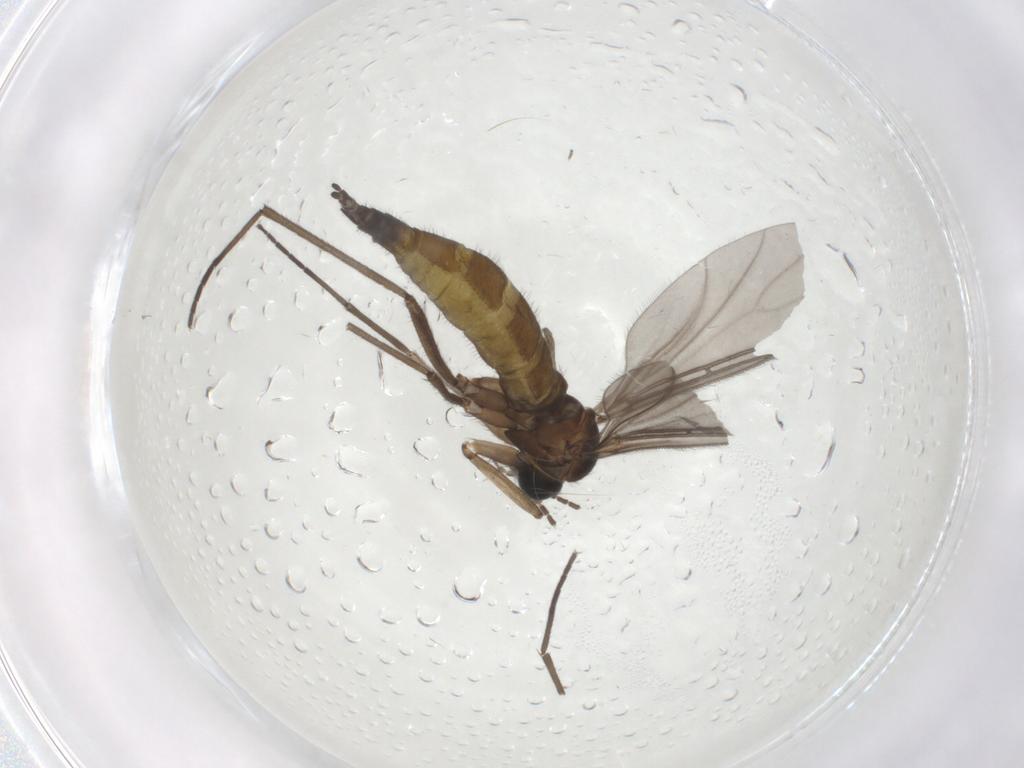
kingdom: Animalia
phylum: Arthropoda
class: Insecta
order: Diptera
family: Sciaridae
